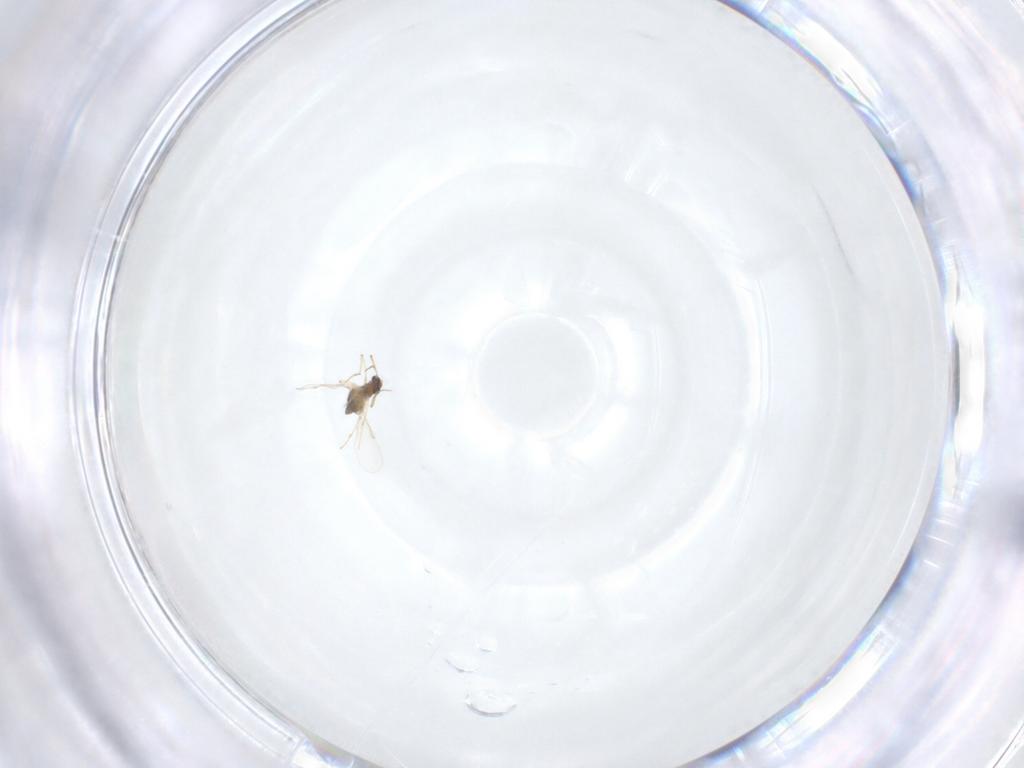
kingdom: Animalia
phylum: Arthropoda
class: Insecta
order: Diptera
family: Chironomidae
